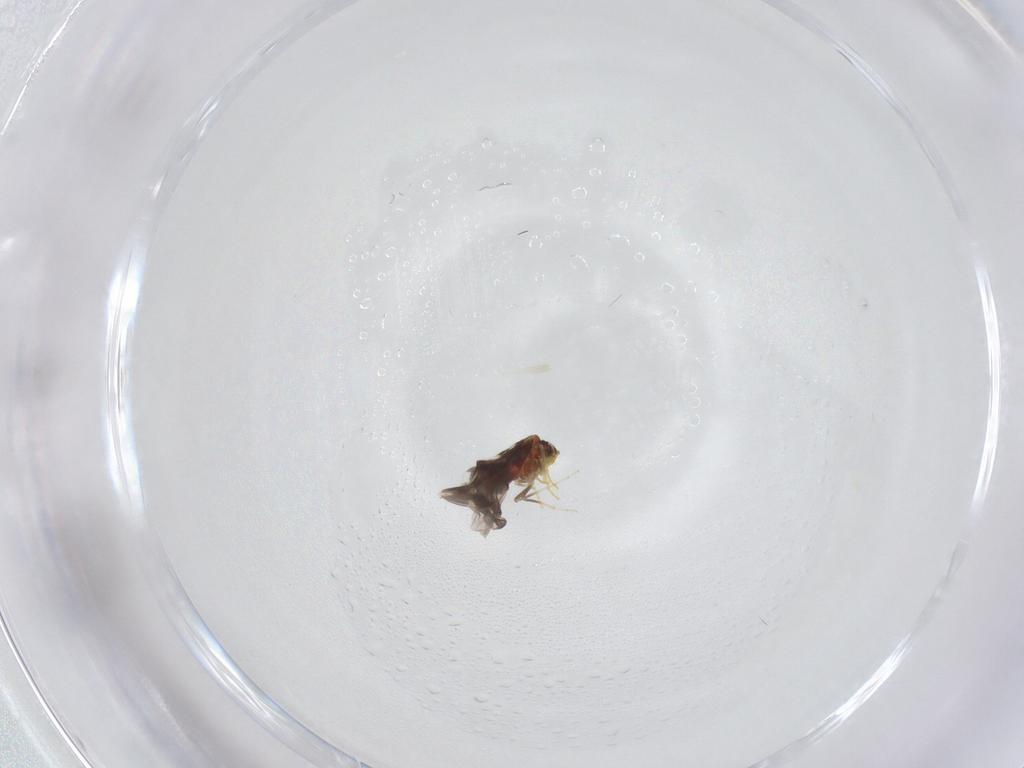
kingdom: Animalia
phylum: Arthropoda
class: Insecta
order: Hemiptera
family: Aleyrodidae
